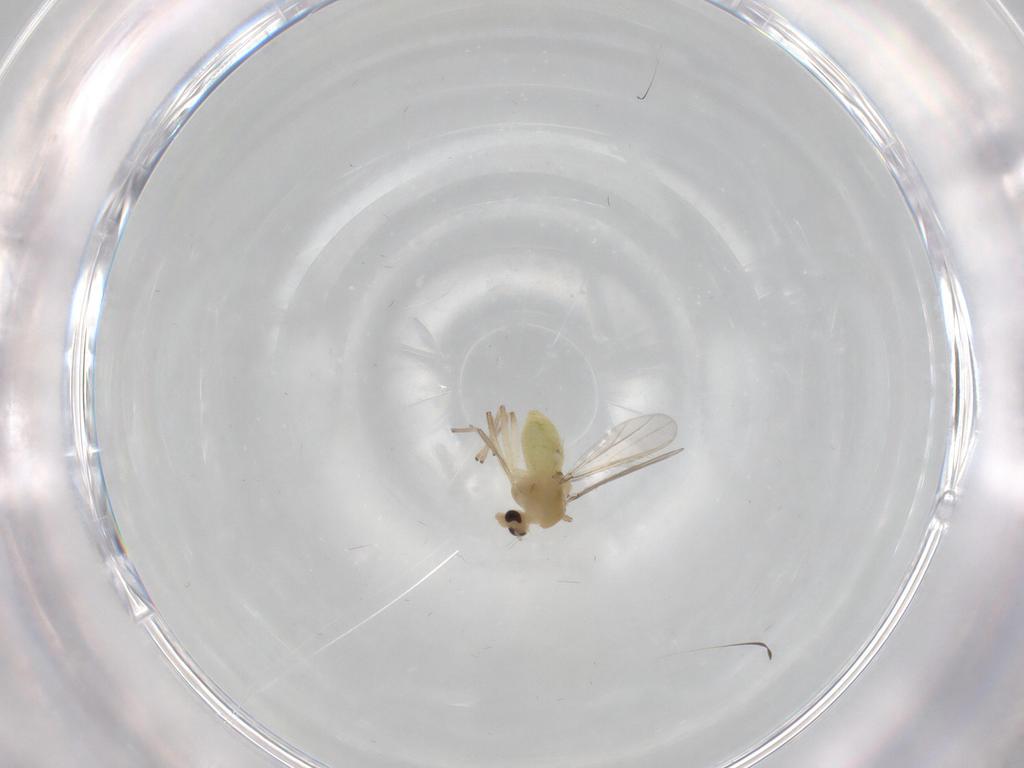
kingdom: Animalia
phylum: Arthropoda
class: Insecta
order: Diptera
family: Chironomidae
